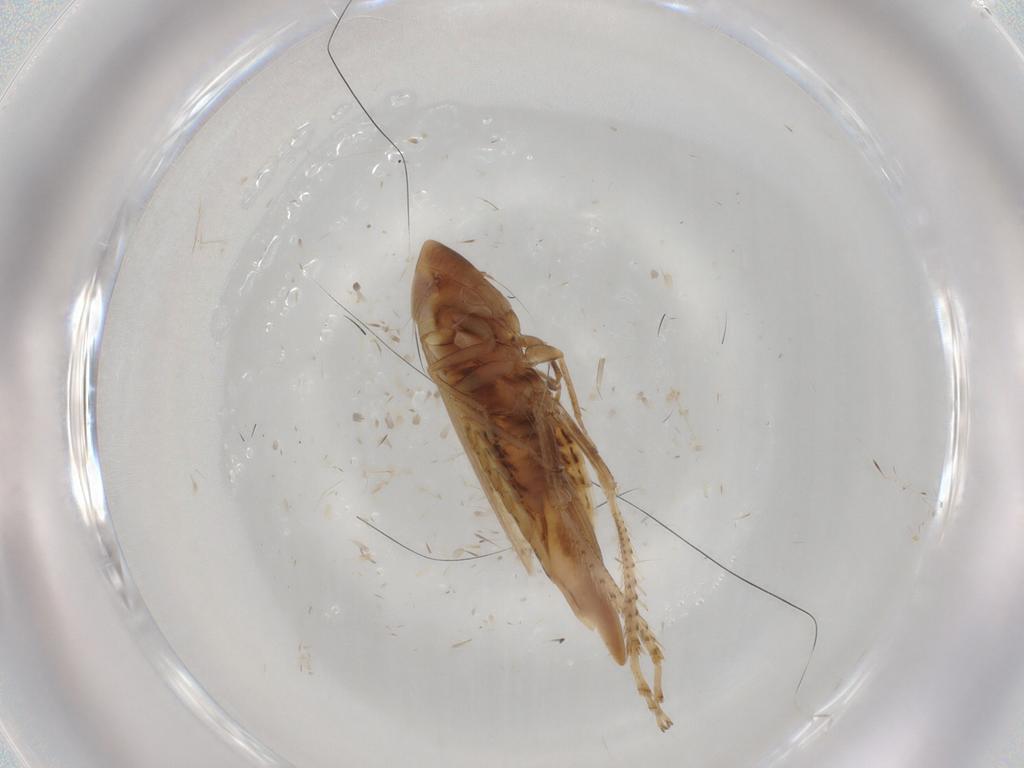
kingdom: Animalia
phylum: Arthropoda
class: Insecta
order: Hemiptera
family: Cicadellidae
